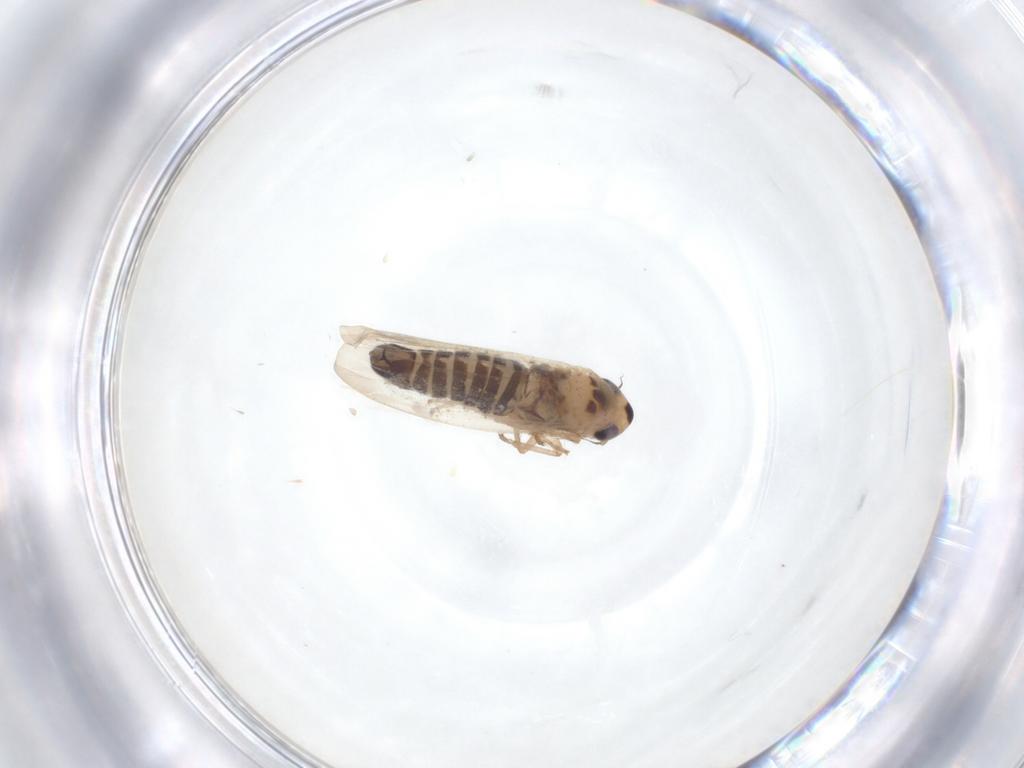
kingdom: Animalia
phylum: Arthropoda
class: Insecta
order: Hemiptera
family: Cicadellidae
